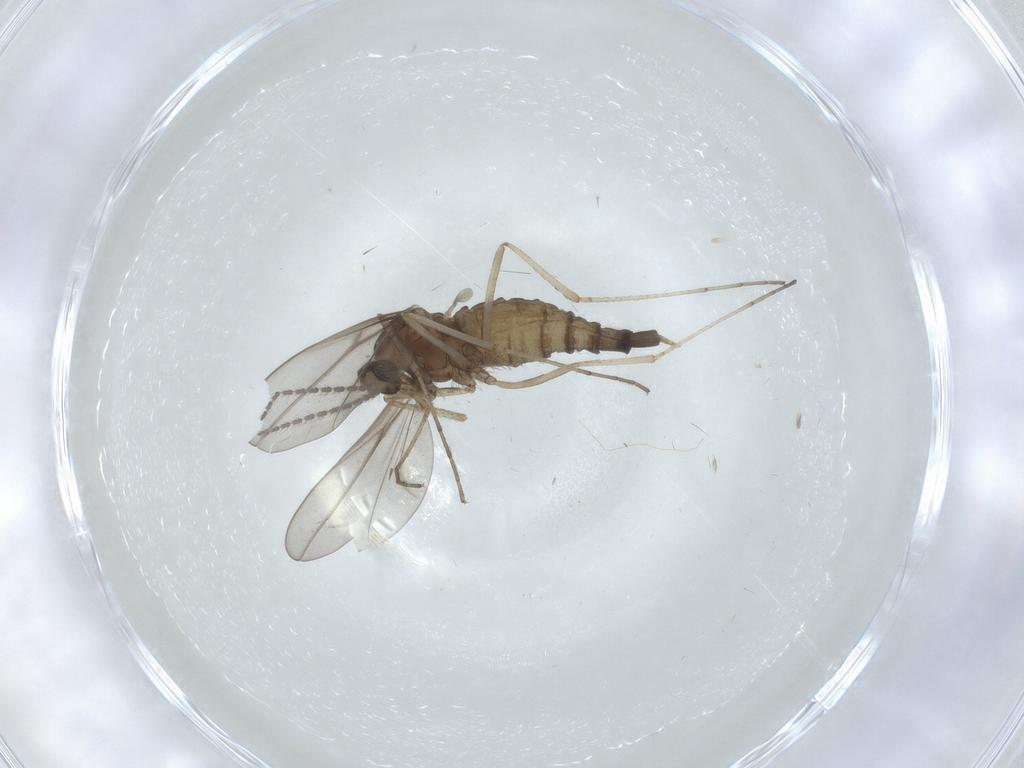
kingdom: Animalia
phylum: Arthropoda
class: Insecta
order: Diptera
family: Cecidomyiidae
